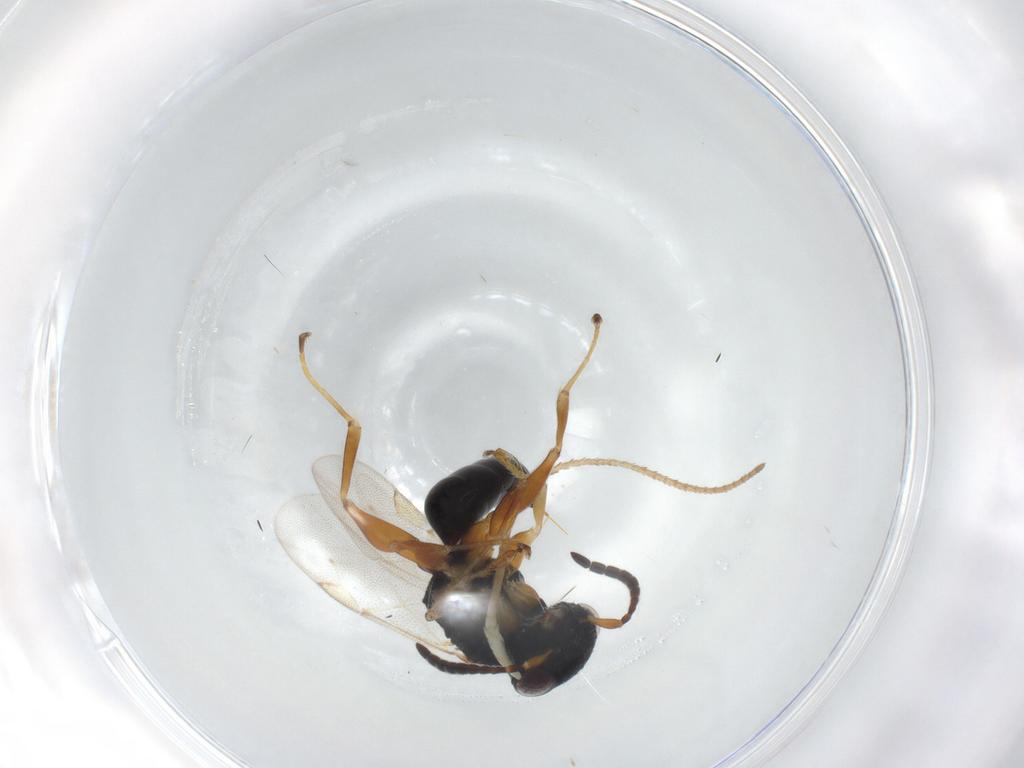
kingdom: Animalia
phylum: Arthropoda
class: Insecta
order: Hymenoptera
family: Dryinidae
